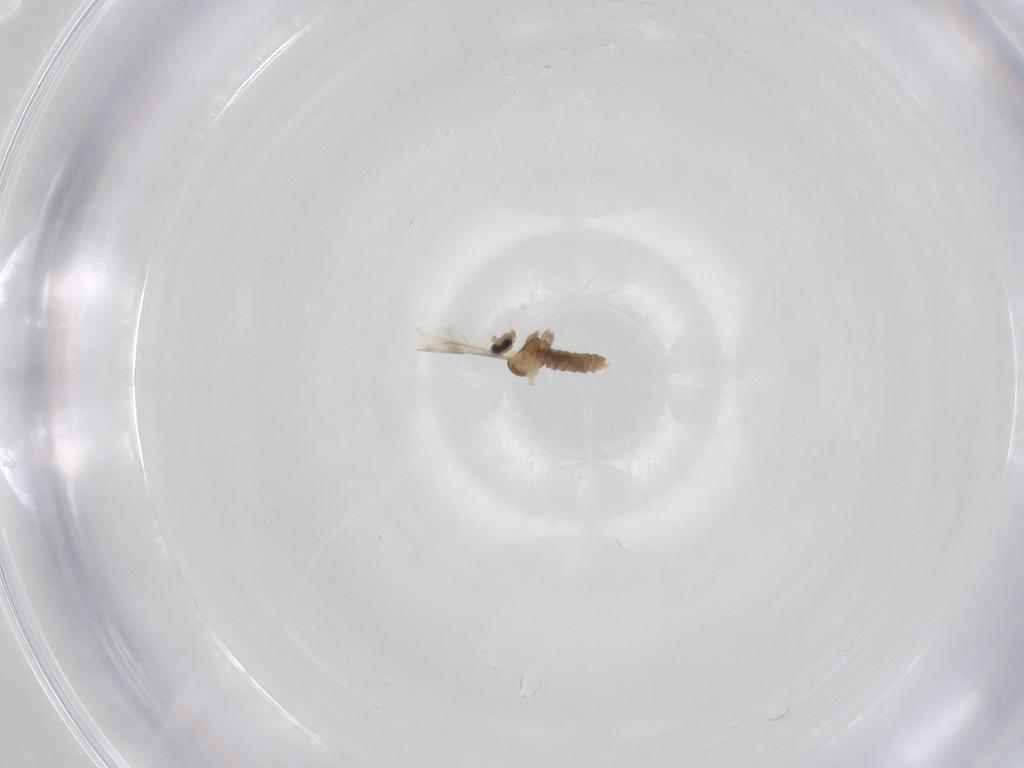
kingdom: Animalia
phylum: Arthropoda
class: Insecta
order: Diptera
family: Cecidomyiidae
